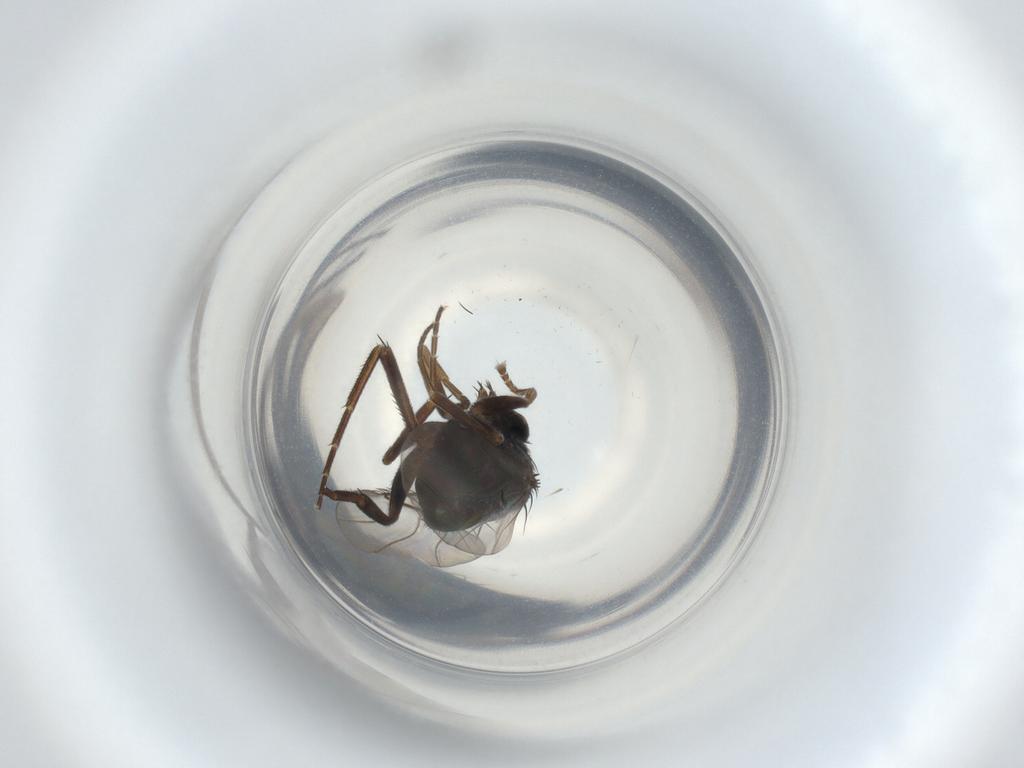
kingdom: Animalia
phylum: Arthropoda
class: Insecta
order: Diptera
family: Phoridae
